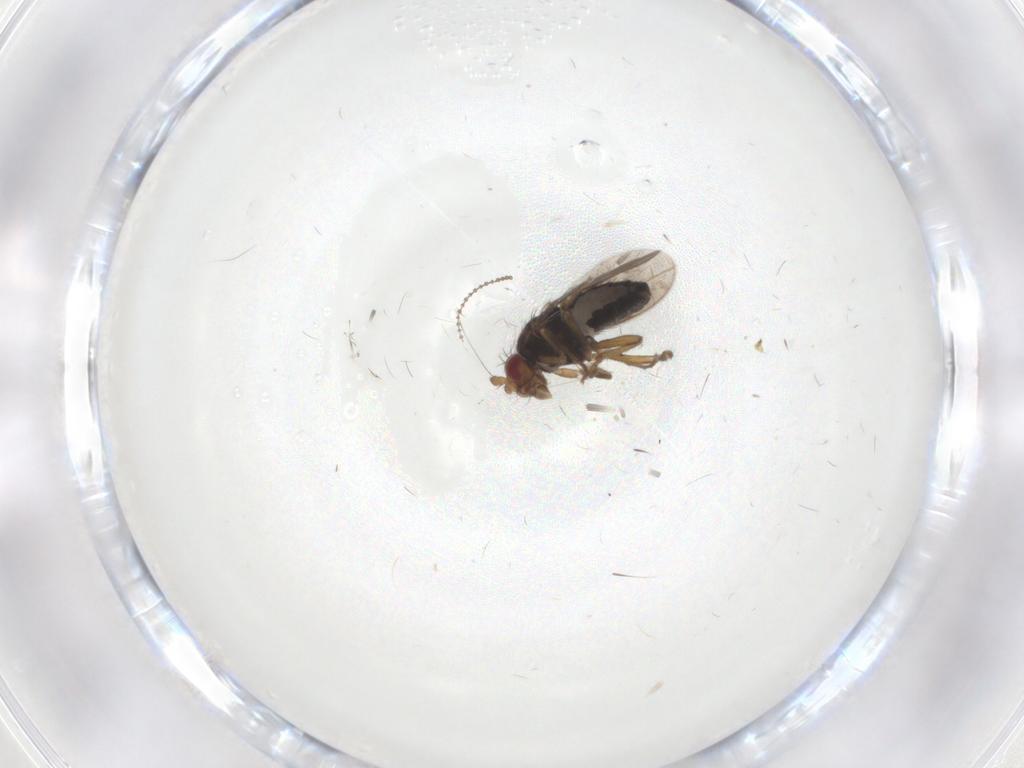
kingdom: Animalia
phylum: Arthropoda
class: Insecta
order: Diptera
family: Sphaeroceridae
